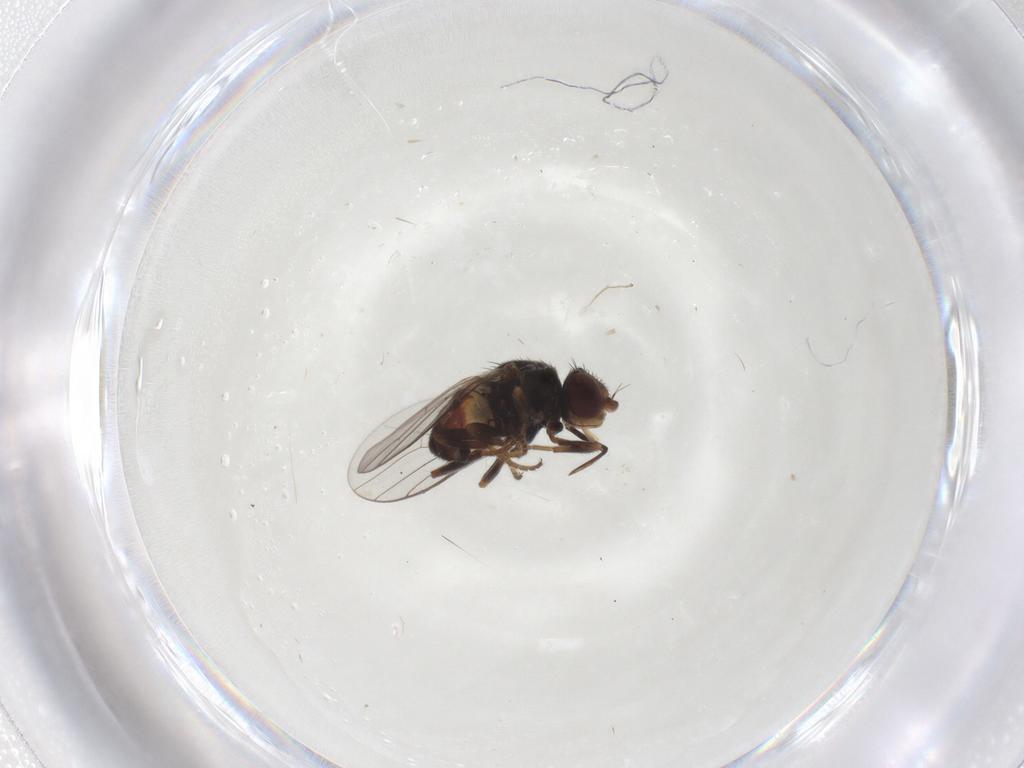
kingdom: Animalia
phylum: Arthropoda
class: Insecta
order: Diptera
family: Chloropidae
